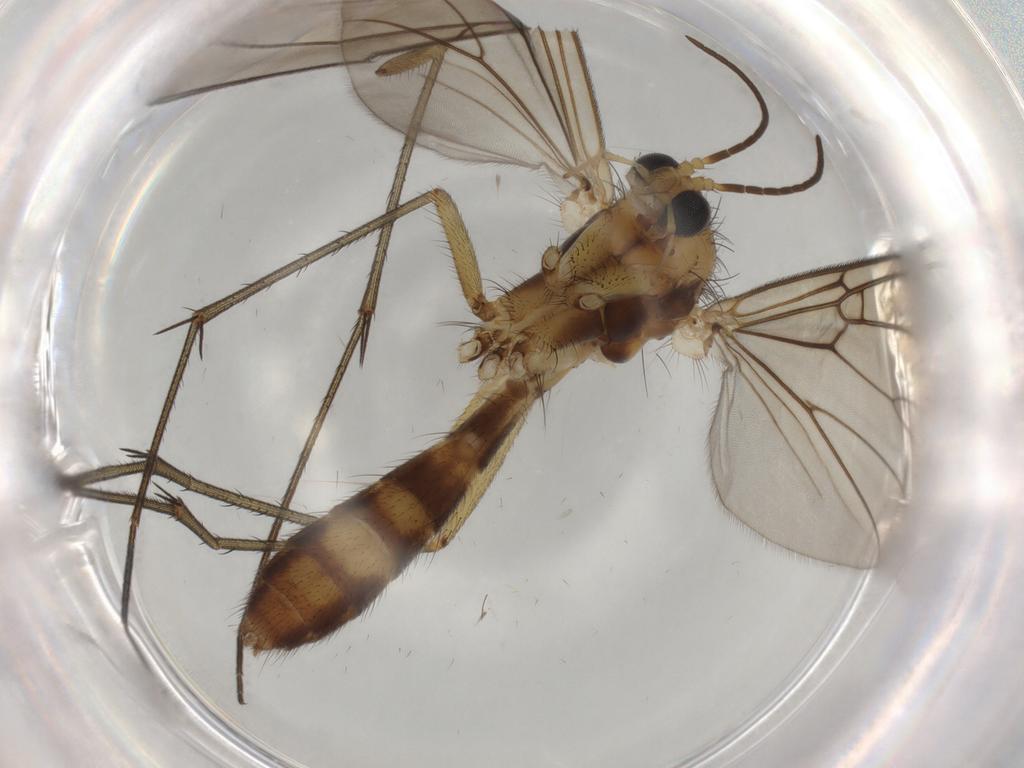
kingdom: Animalia
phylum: Arthropoda
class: Insecta
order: Diptera
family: Mycetophilidae
